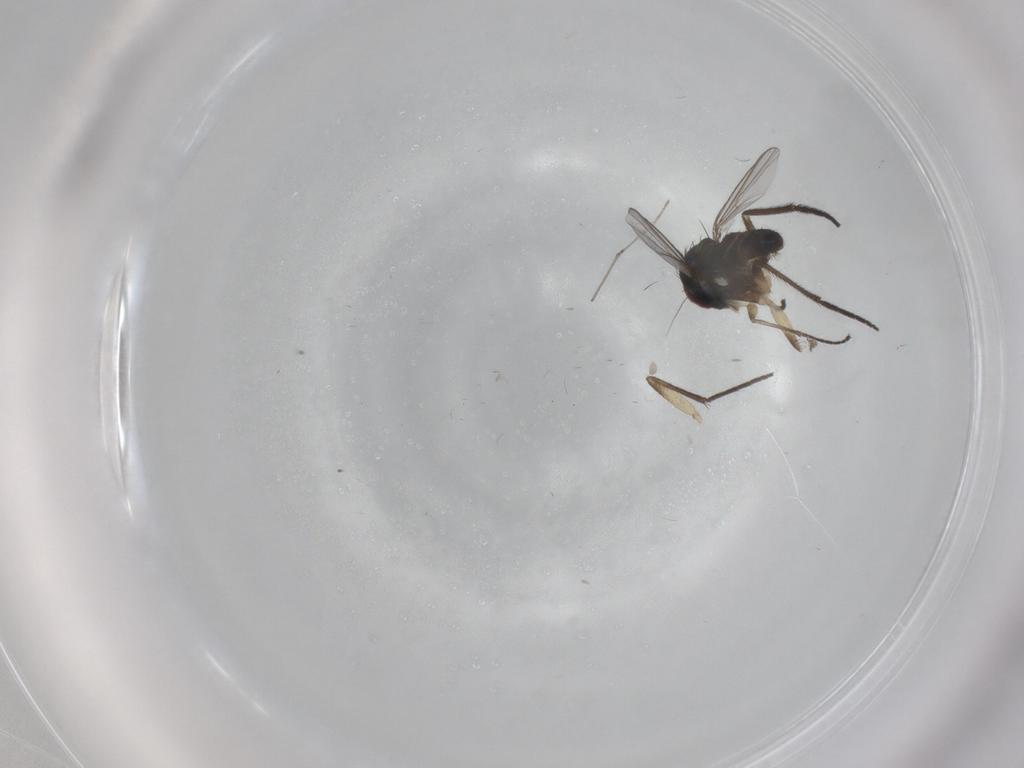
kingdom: Animalia
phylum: Arthropoda
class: Insecta
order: Diptera
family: Dolichopodidae
